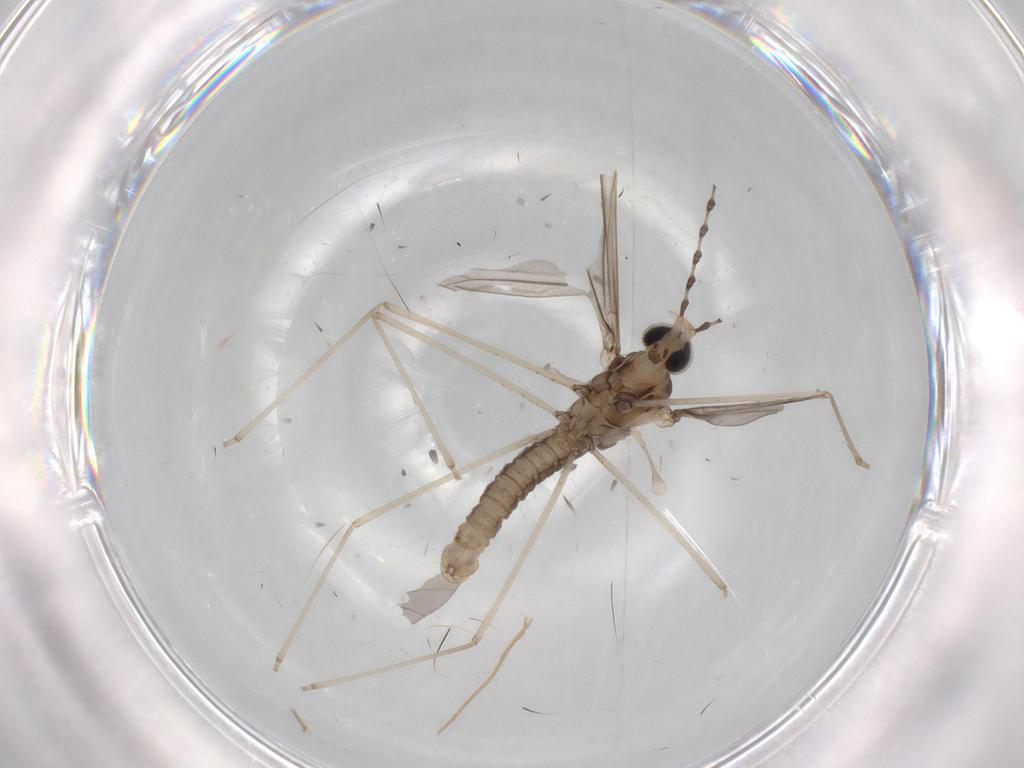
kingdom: Animalia
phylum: Arthropoda
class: Insecta
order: Diptera
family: Cecidomyiidae
